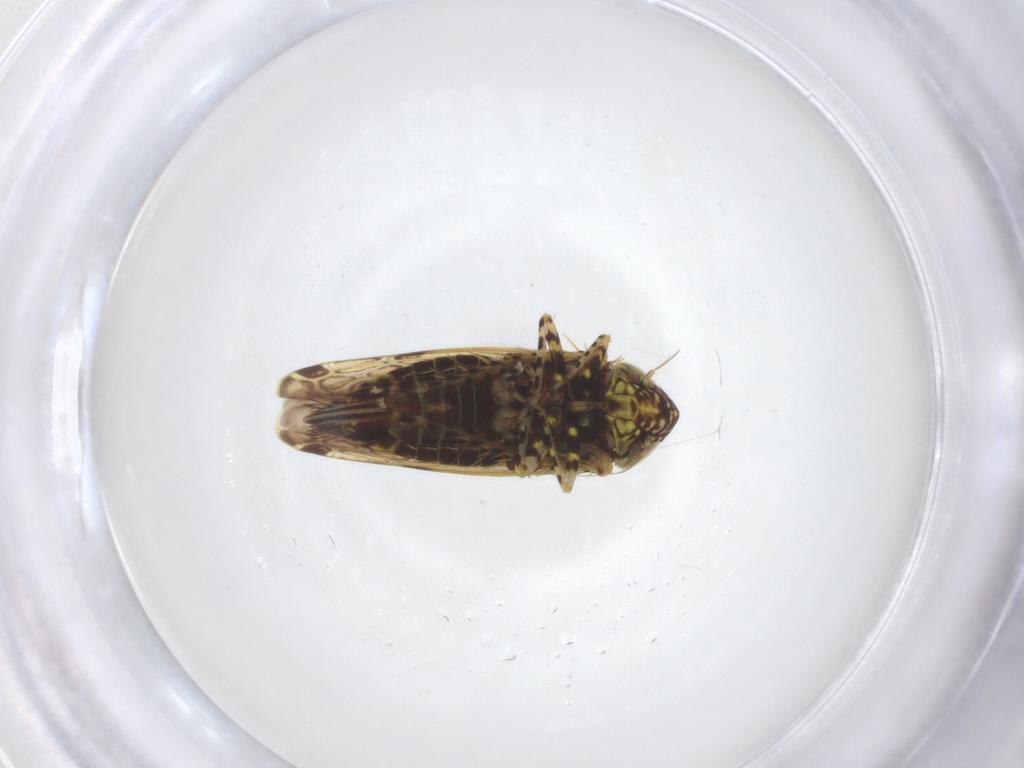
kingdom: Animalia
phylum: Arthropoda
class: Insecta
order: Hemiptera
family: Cicadellidae
